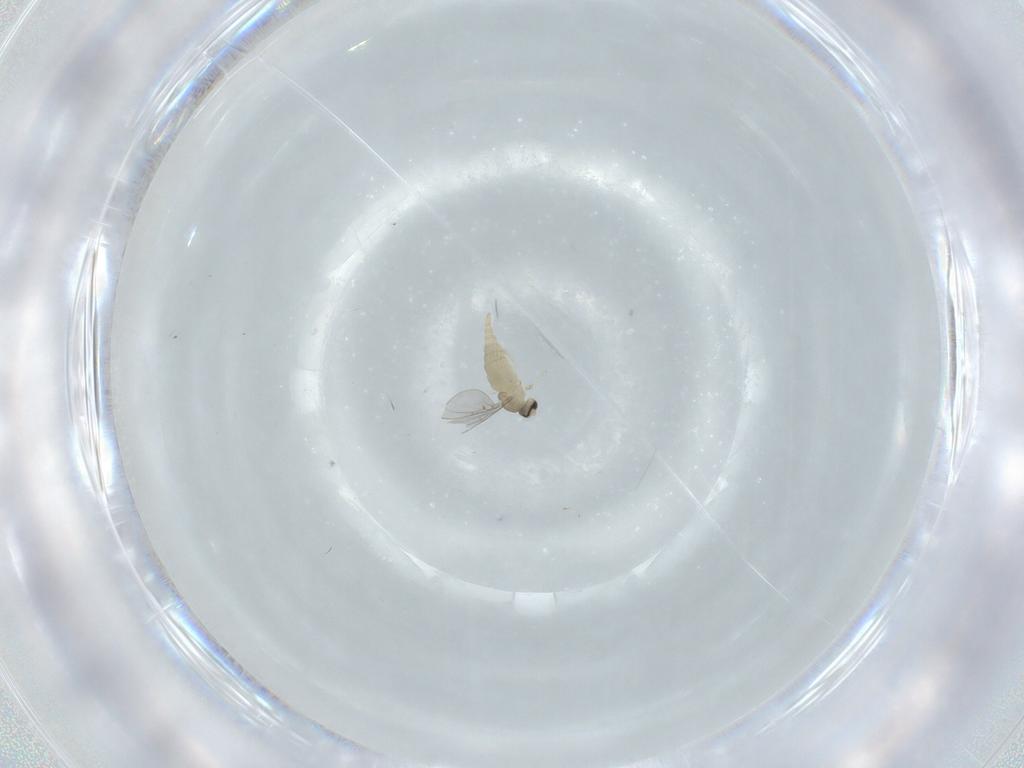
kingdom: Animalia
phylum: Arthropoda
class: Insecta
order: Diptera
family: Cecidomyiidae
